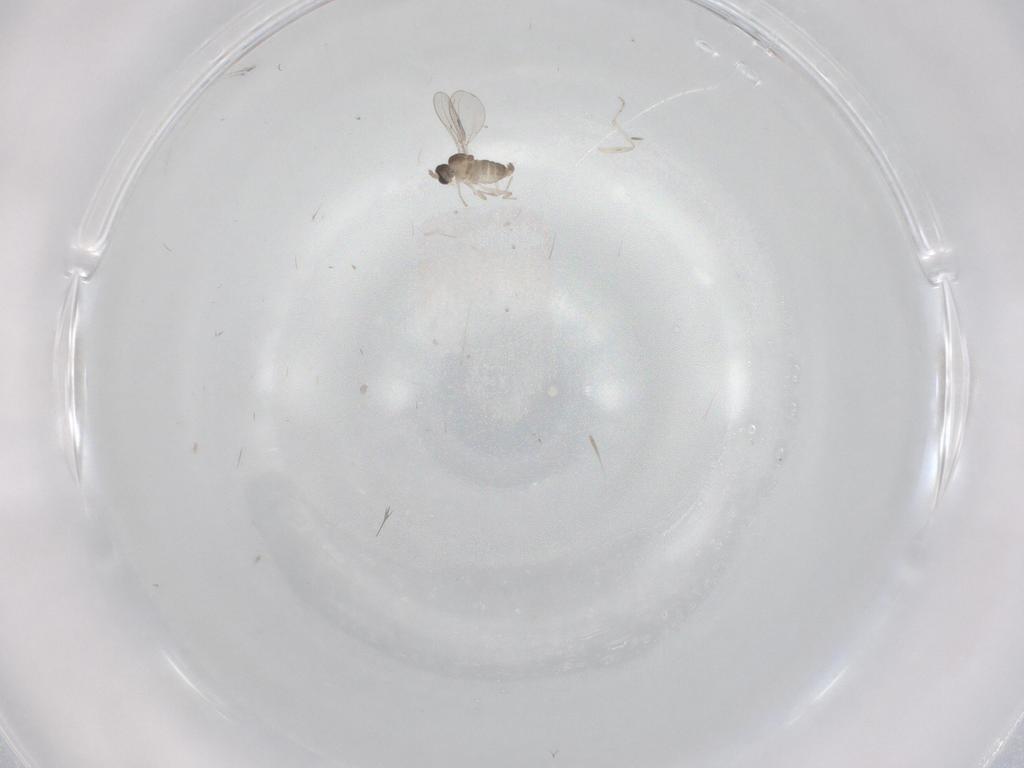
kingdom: Animalia
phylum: Arthropoda
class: Insecta
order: Diptera
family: Cecidomyiidae
